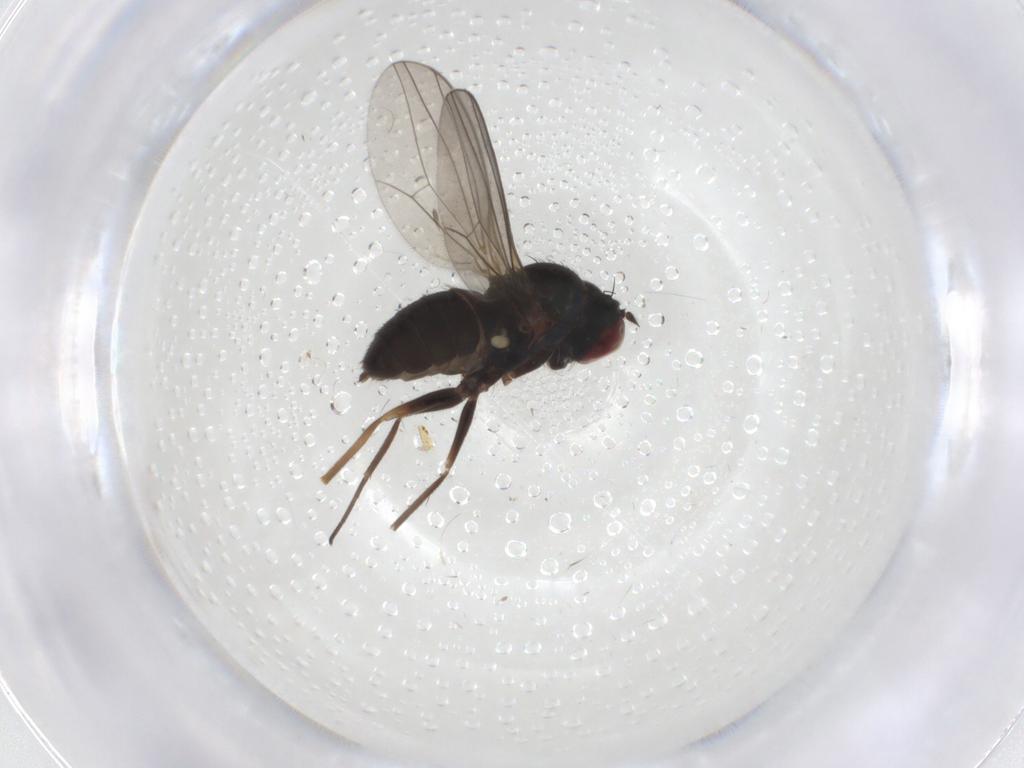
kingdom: Animalia
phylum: Arthropoda
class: Insecta
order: Diptera
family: Dolichopodidae
